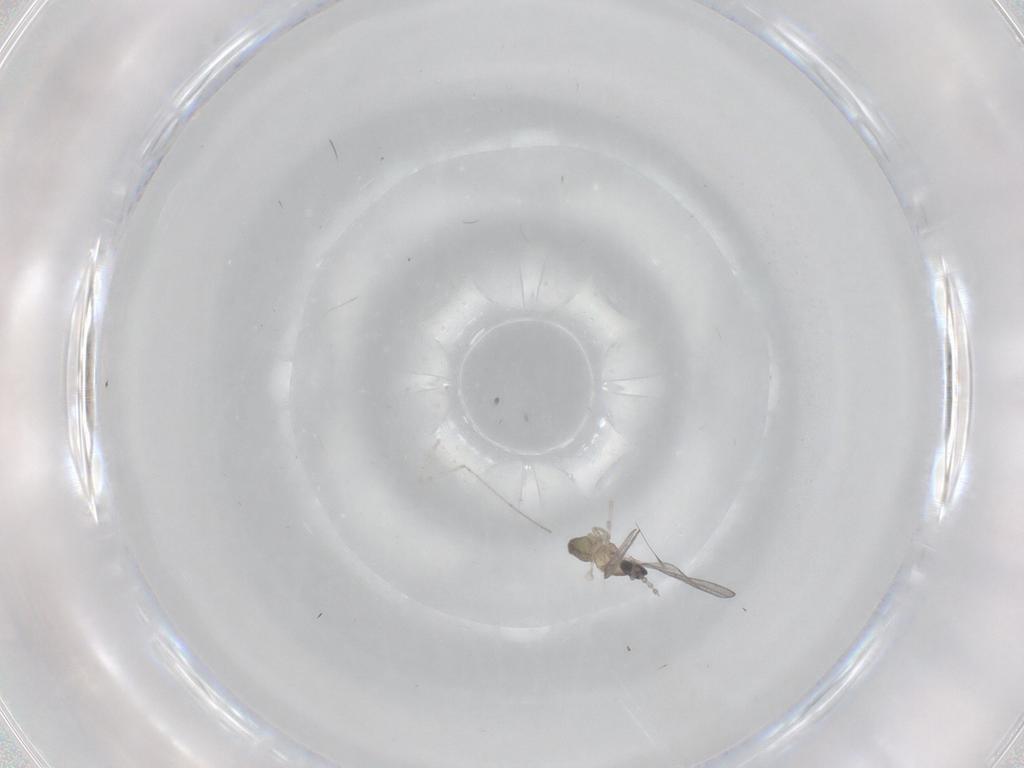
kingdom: Animalia
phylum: Arthropoda
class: Insecta
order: Diptera
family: Cecidomyiidae
